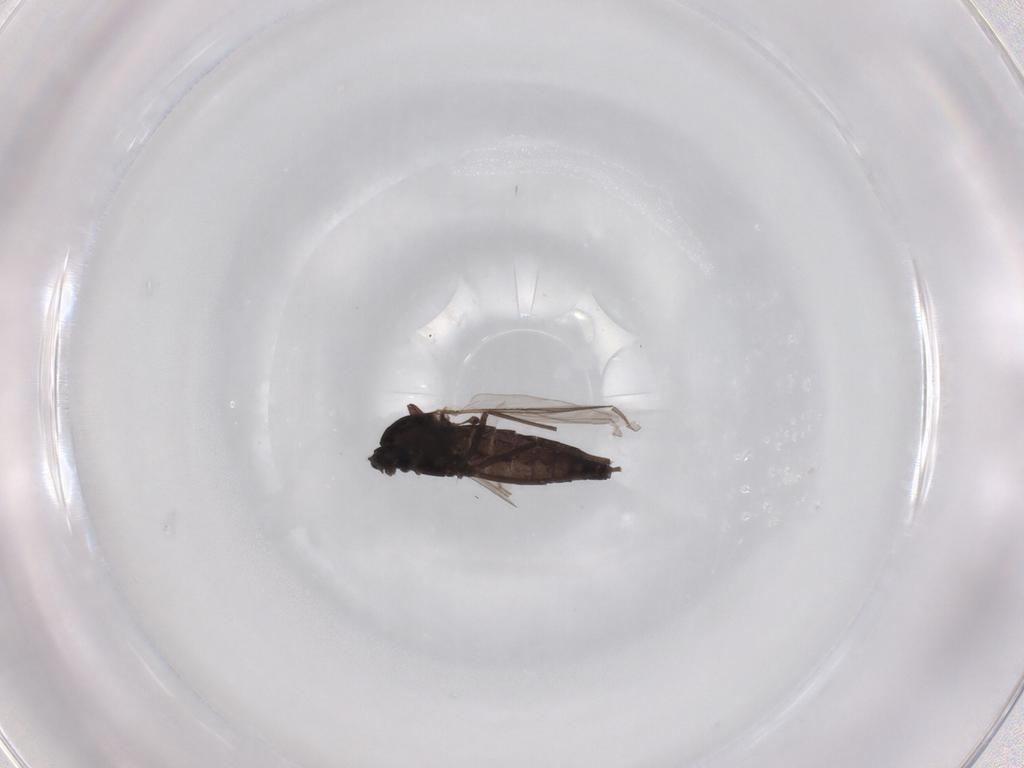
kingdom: Animalia
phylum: Arthropoda
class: Insecta
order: Diptera
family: Chironomidae
